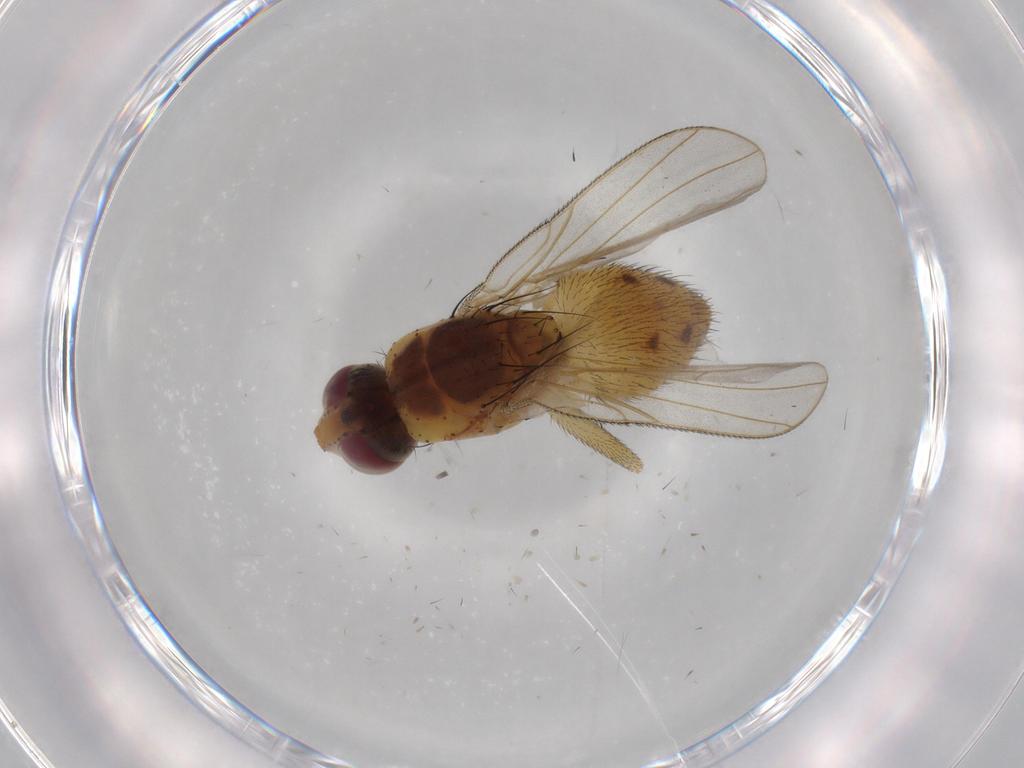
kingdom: Animalia
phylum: Arthropoda
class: Insecta
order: Diptera
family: Muscidae
